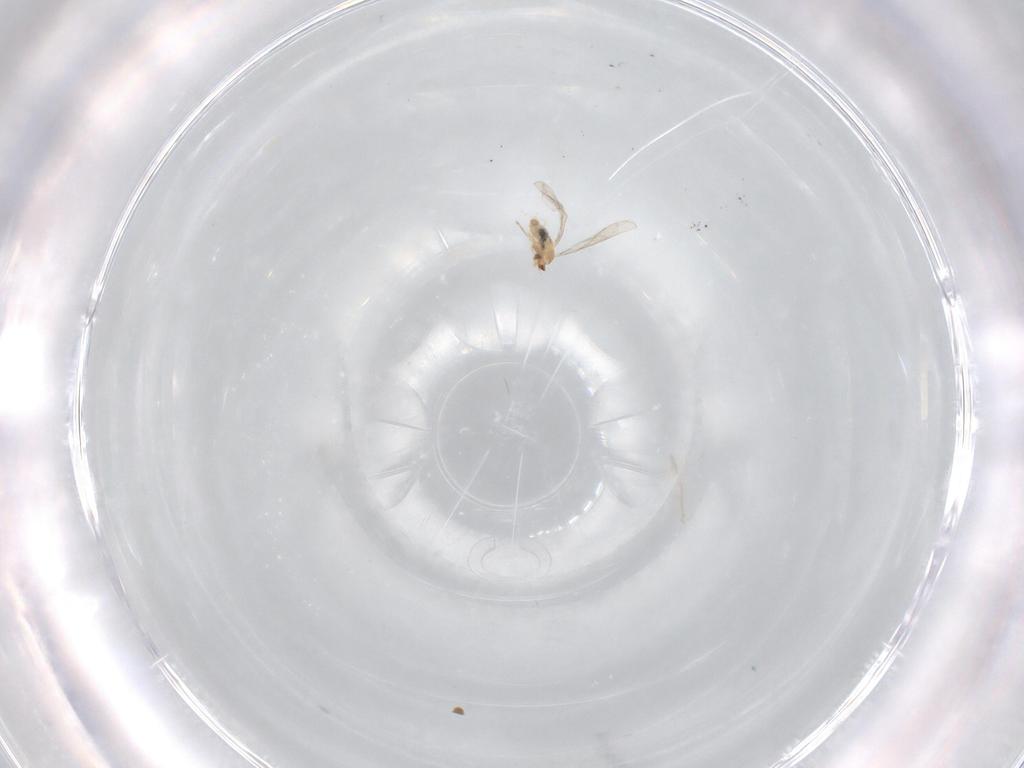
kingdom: Animalia
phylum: Arthropoda
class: Insecta
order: Diptera
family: Cecidomyiidae
